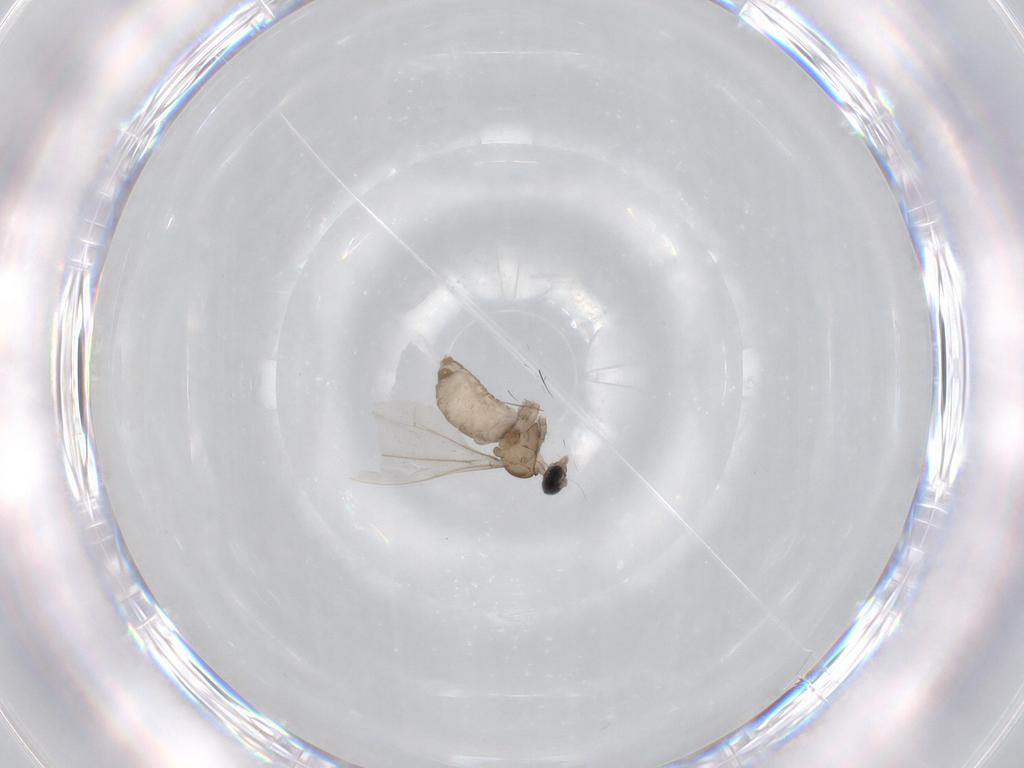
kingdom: Animalia
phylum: Arthropoda
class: Insecta
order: Diptera
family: Cecidomyiidae
